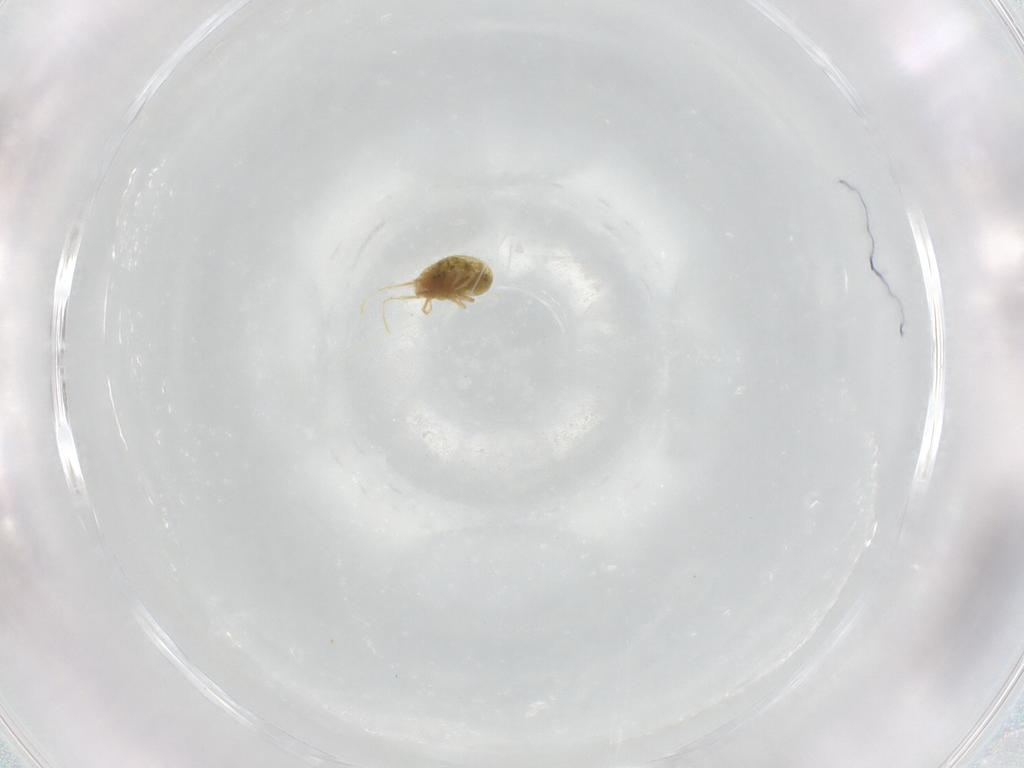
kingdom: Animalia
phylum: Arthropoda
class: Arachnida
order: Trombidiformes
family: Tetranychidae
